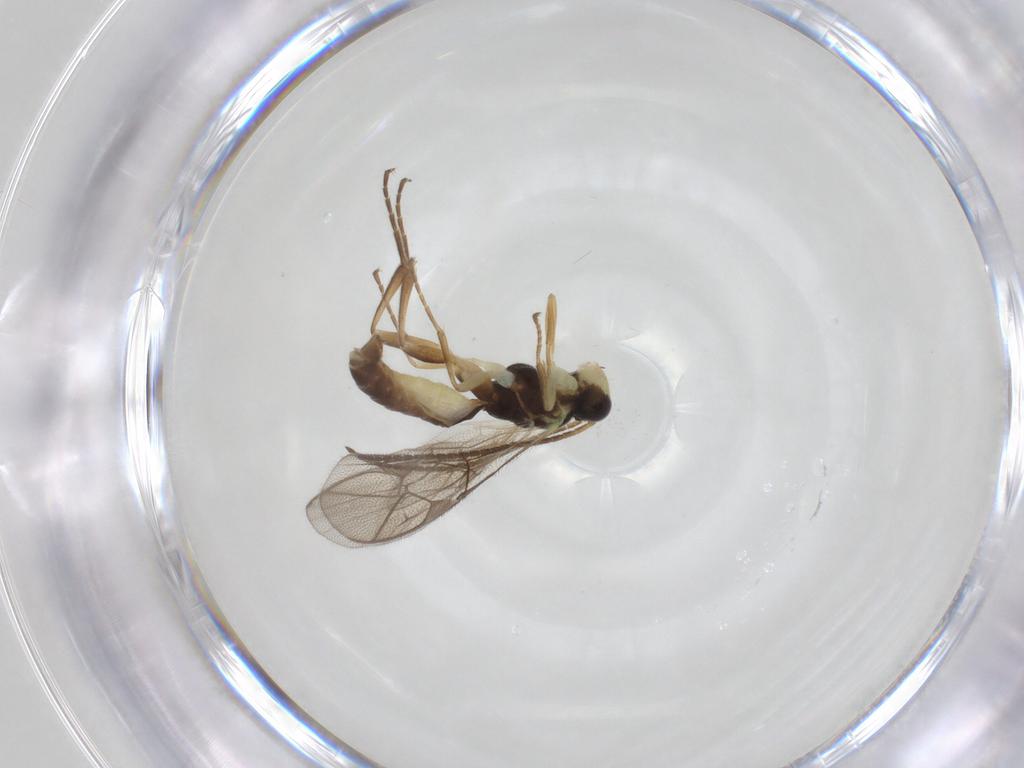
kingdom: Animalia
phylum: Arthropoda
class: Insecta
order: Hymenoptera
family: Ichneumonidae
